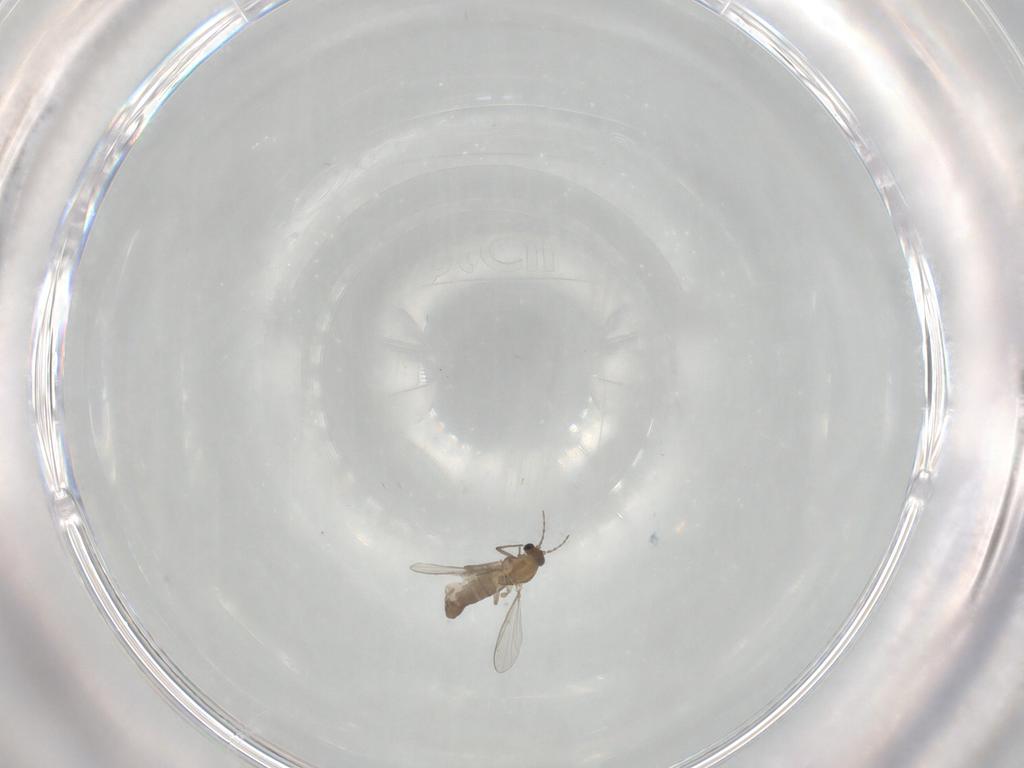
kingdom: Animalia
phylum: Arthropoda
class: Insecta
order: Diptera
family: Chironomidae
